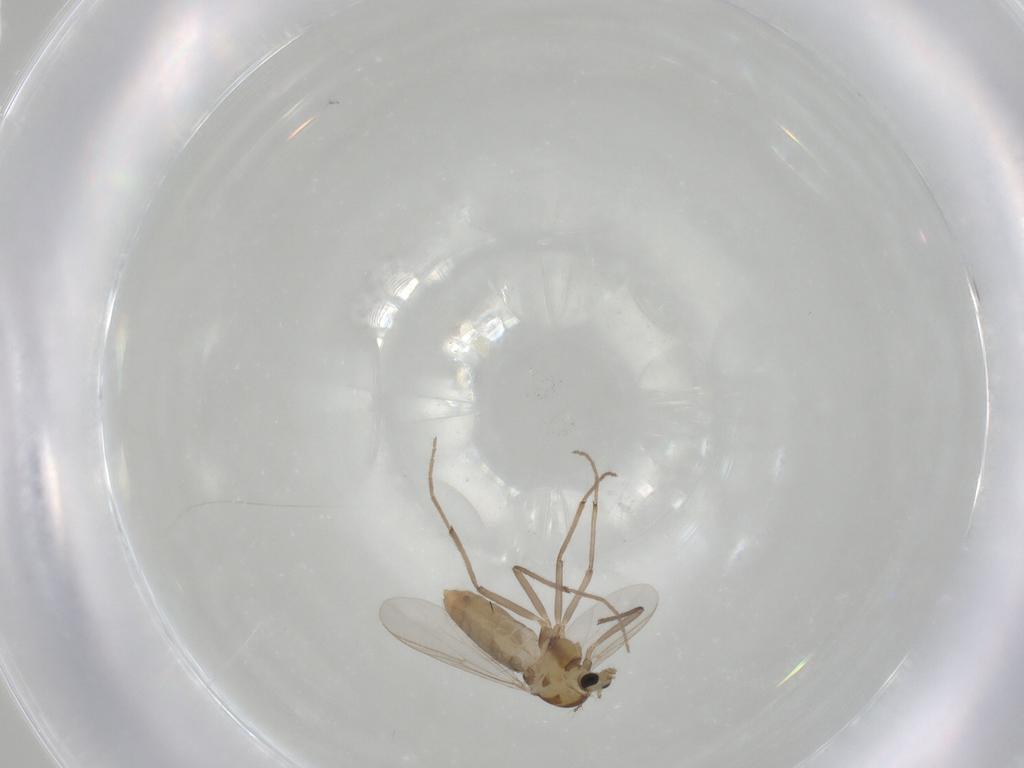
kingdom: Animalia
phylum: Arthropoda
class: Insecta
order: Diptera
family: Chironomidae
